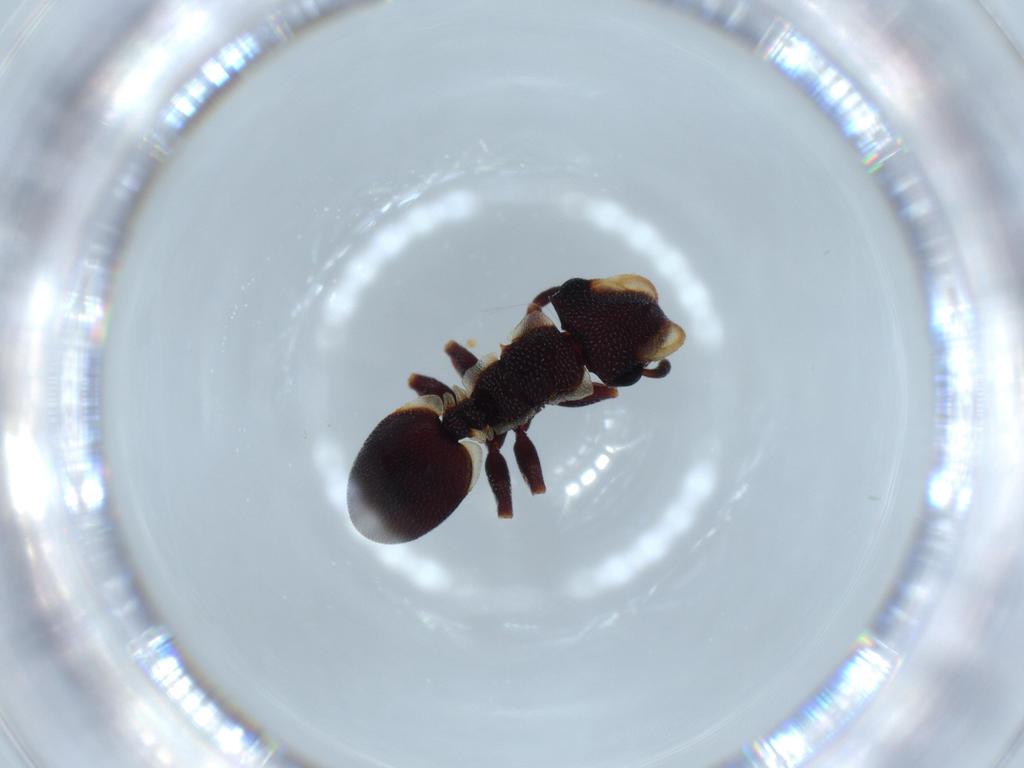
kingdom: Animalia
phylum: Arthropoda
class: Insecta
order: Hymenoptera
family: Formicidae
